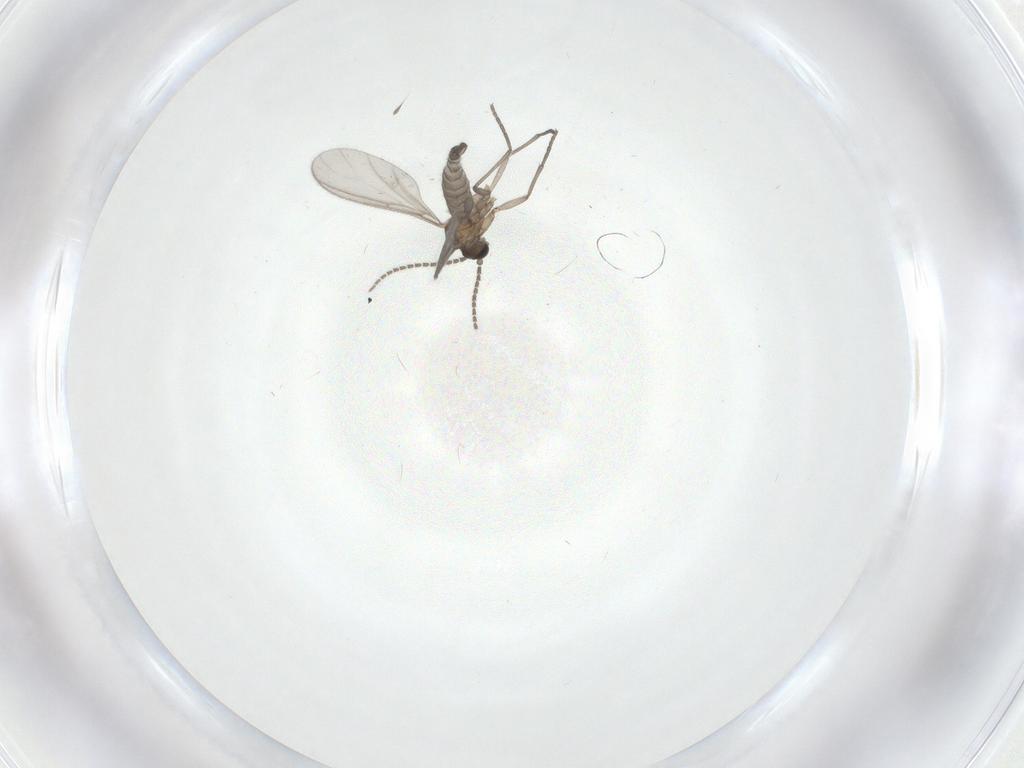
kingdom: Animalia
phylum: Arthropoda
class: Insecta
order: Diptera
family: Sciaridae
